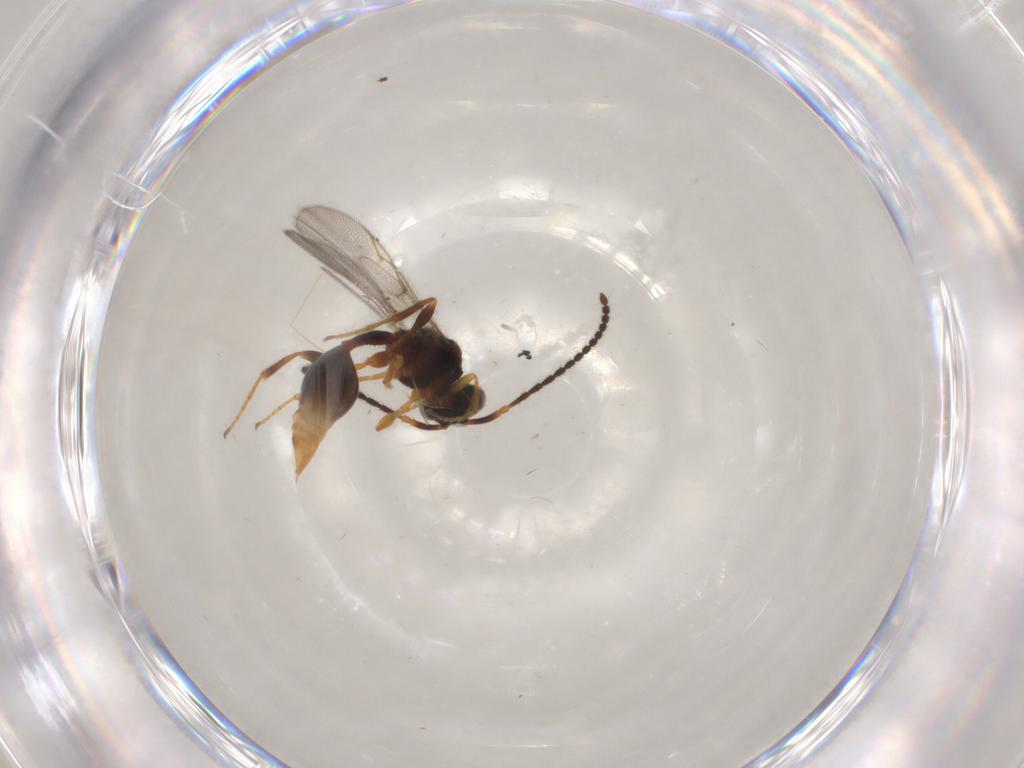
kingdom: Animalia
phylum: Arthropoda
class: Insecta
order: Hymenoptera
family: Diapriidae
